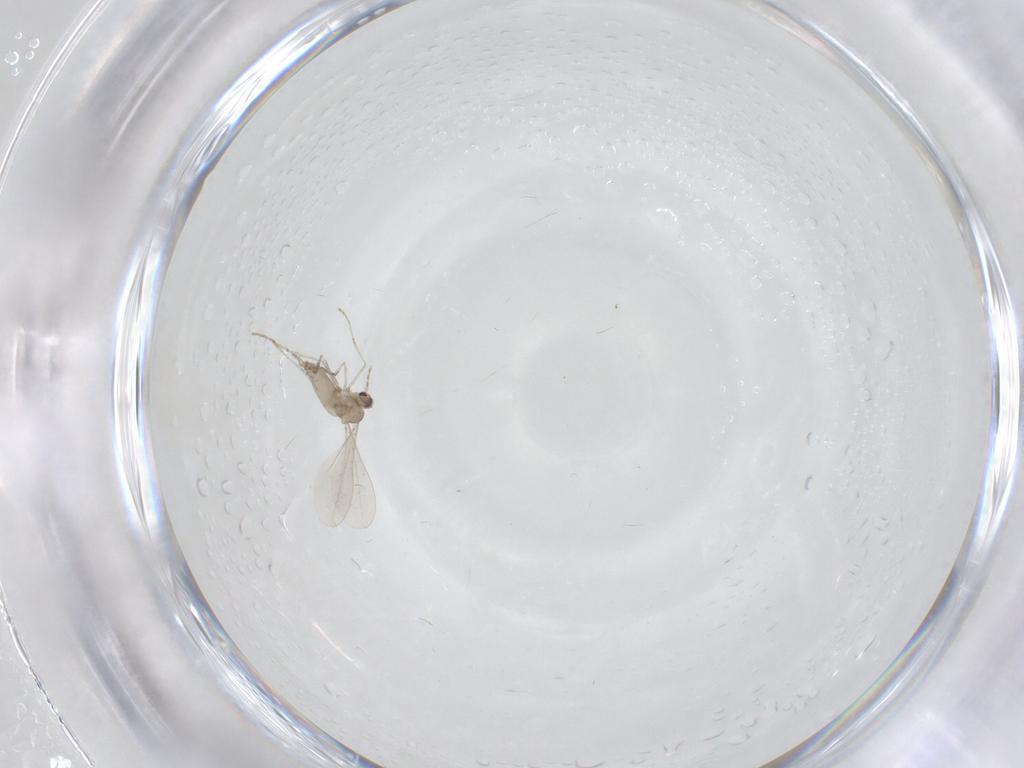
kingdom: Animalia
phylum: Arthropoda
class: Insecta
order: Diptera
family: Cecidomyiidae
